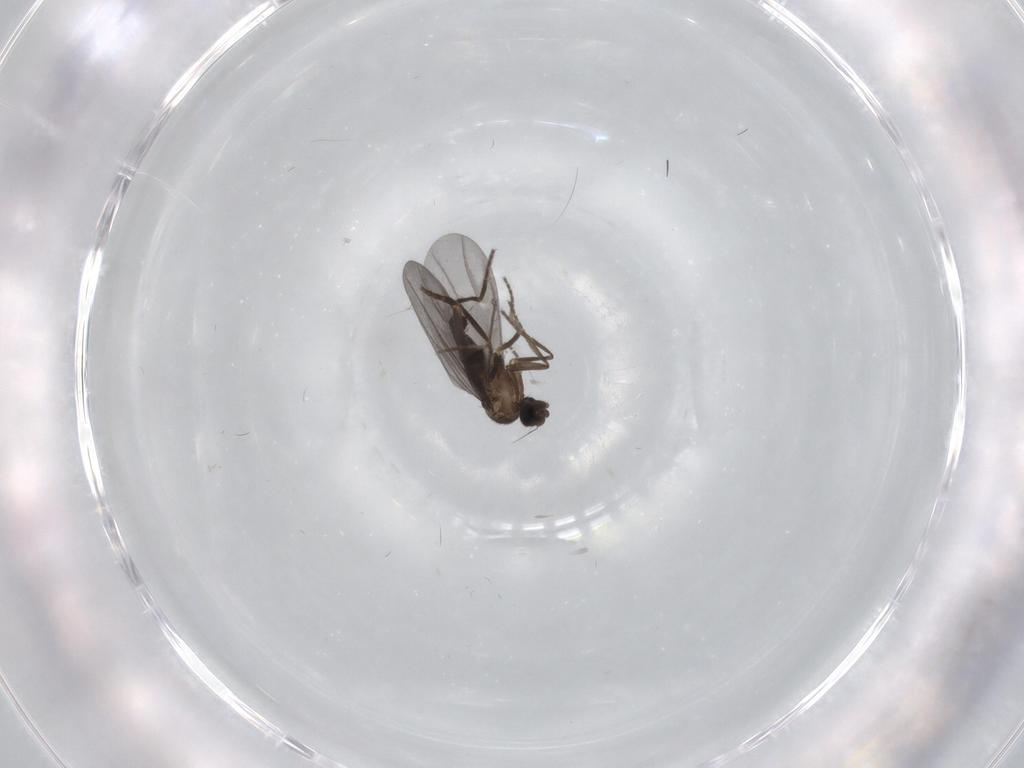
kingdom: Animalia
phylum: Arthropoda
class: Insecta
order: Diptera
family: Phoridae
